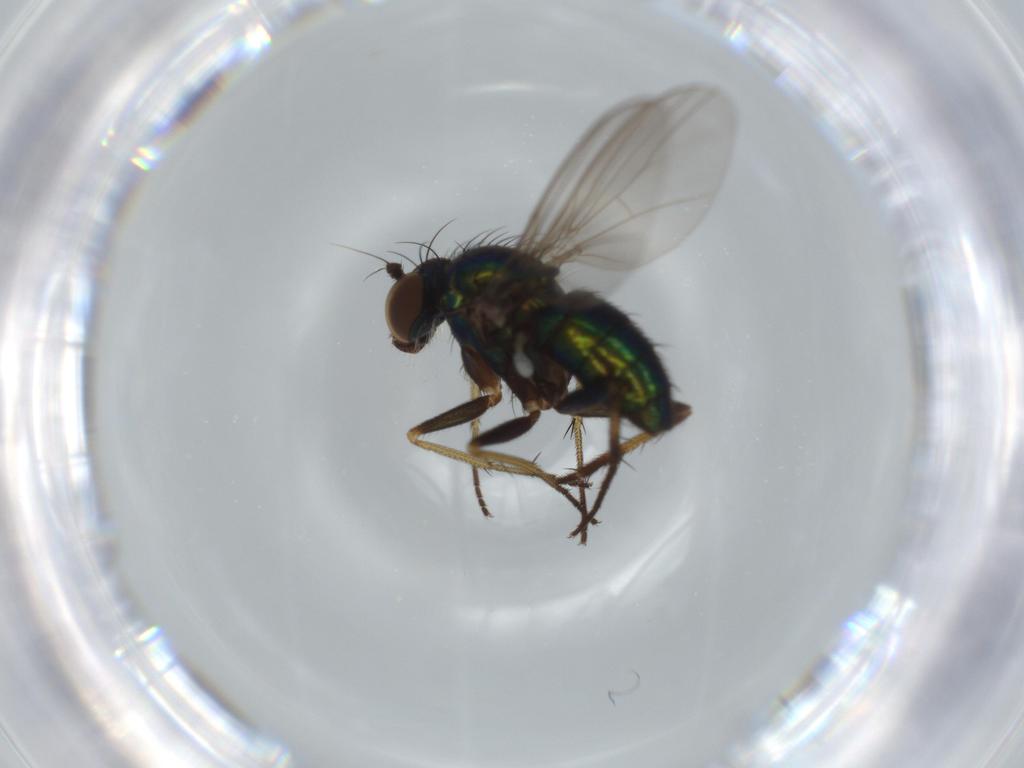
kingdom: Animalia
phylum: Arthropoda
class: Insecta
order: Diptera
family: Dolichopodidae
